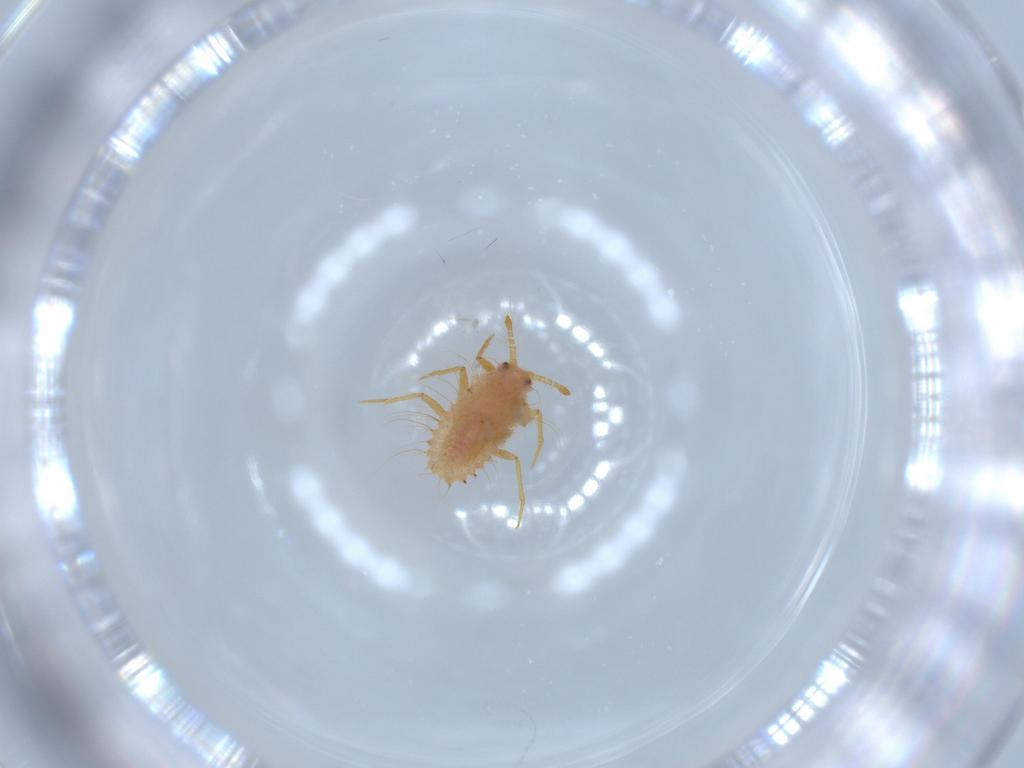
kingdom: Animalia
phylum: Arthropoda
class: Insecta
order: Hemiptera
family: Monophlebidae
